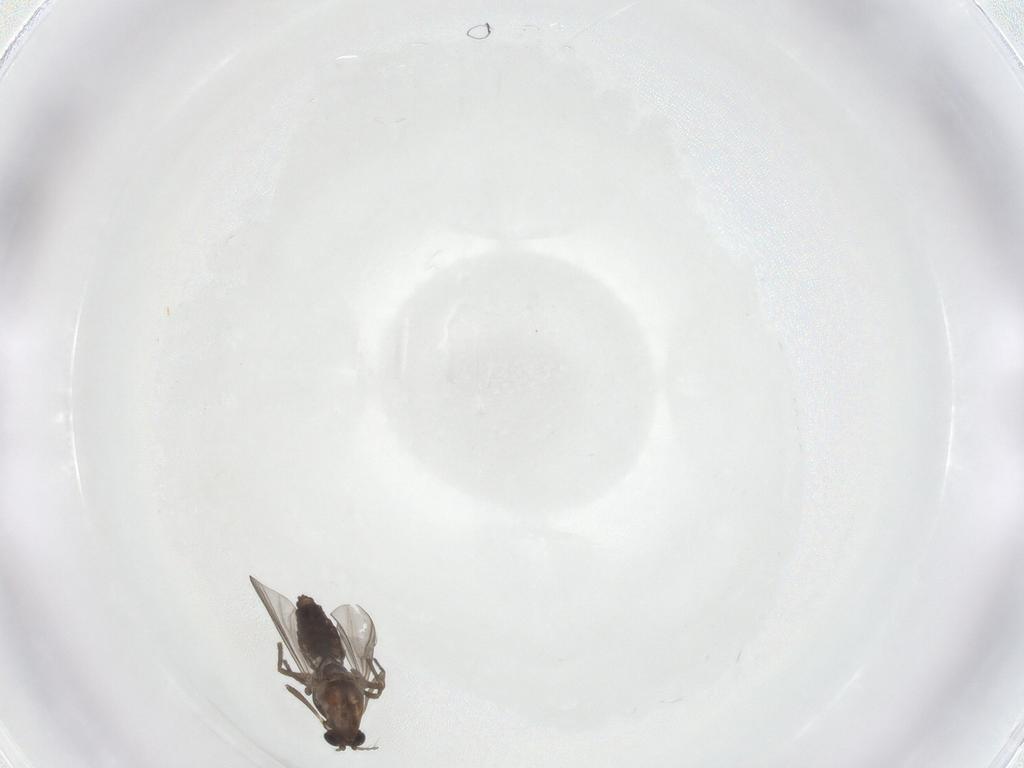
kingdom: Animalia
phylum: Arthropoda
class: Insecta
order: Diptera
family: Chironomidae
